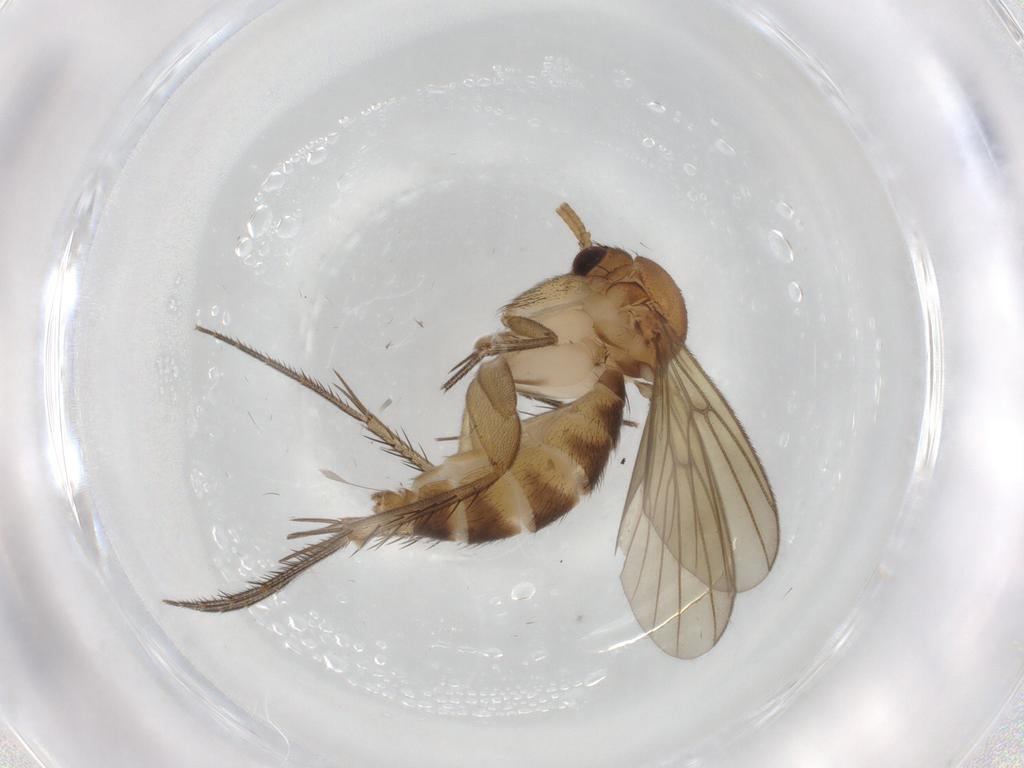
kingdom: Animalia
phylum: Arthropoda
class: Insecta
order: Diptera
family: Mycetophilidae
